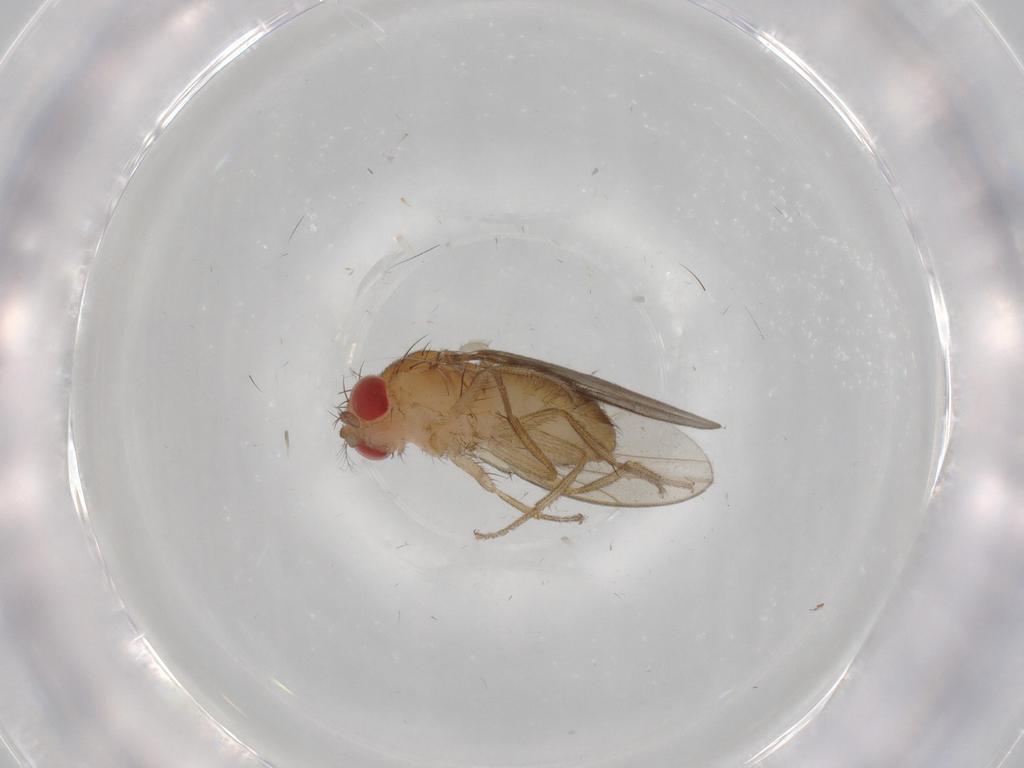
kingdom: Animalia
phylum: Arthropoda
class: Insecta
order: Diptera
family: Drosophilidae
